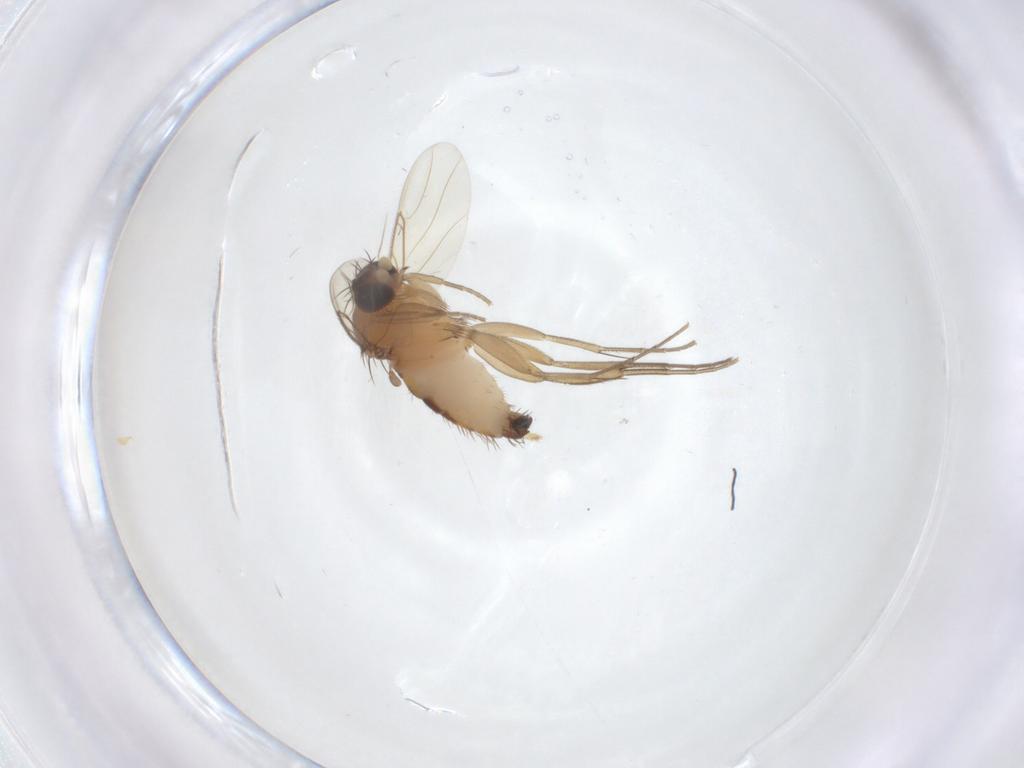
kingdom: Animalia
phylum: Arthropoda
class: Insecta
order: Diptera
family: Phoridae
